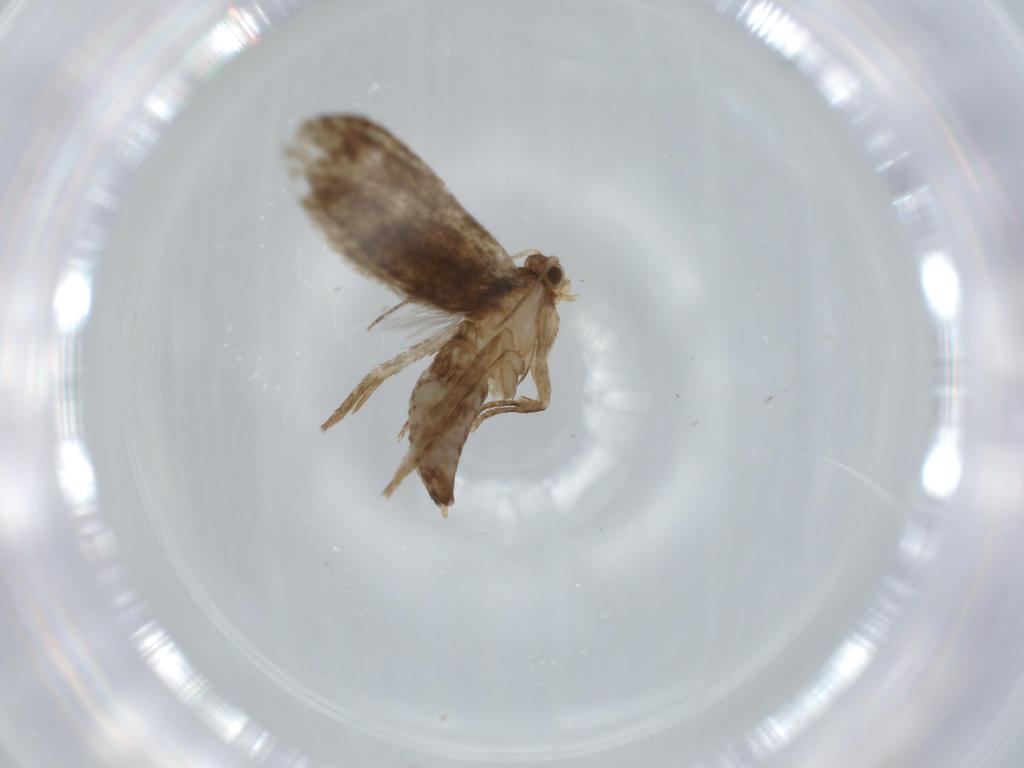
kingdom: Animalia
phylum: Arthropoda
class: Insecta
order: Lepidoptera
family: Tineidae
